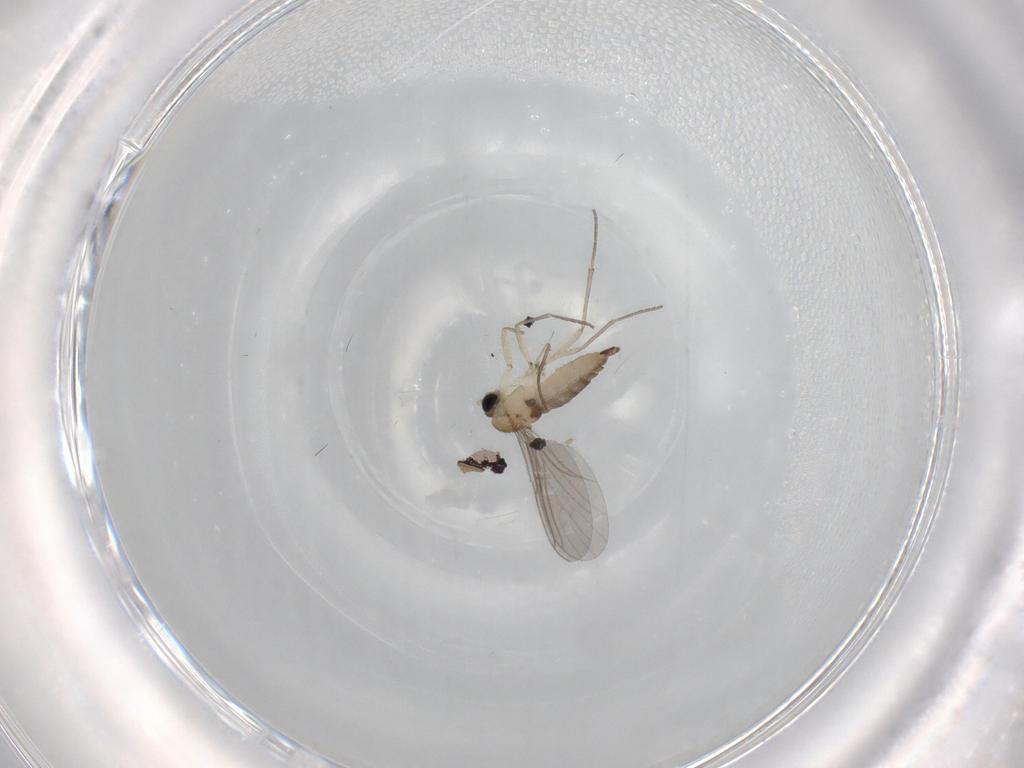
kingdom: Animalia
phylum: Arthropoda
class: Insecta
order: Diptera
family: Sciaridae
